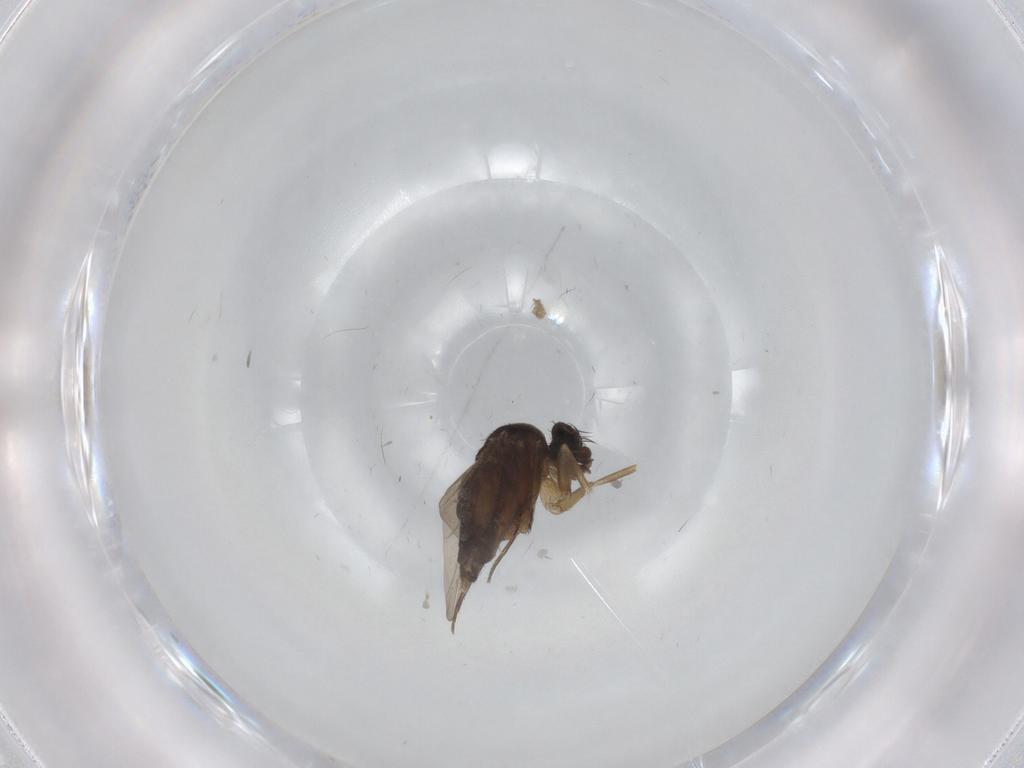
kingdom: Animalia
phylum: Arthropoda
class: Insecta
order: Diptera
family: Phoridae
